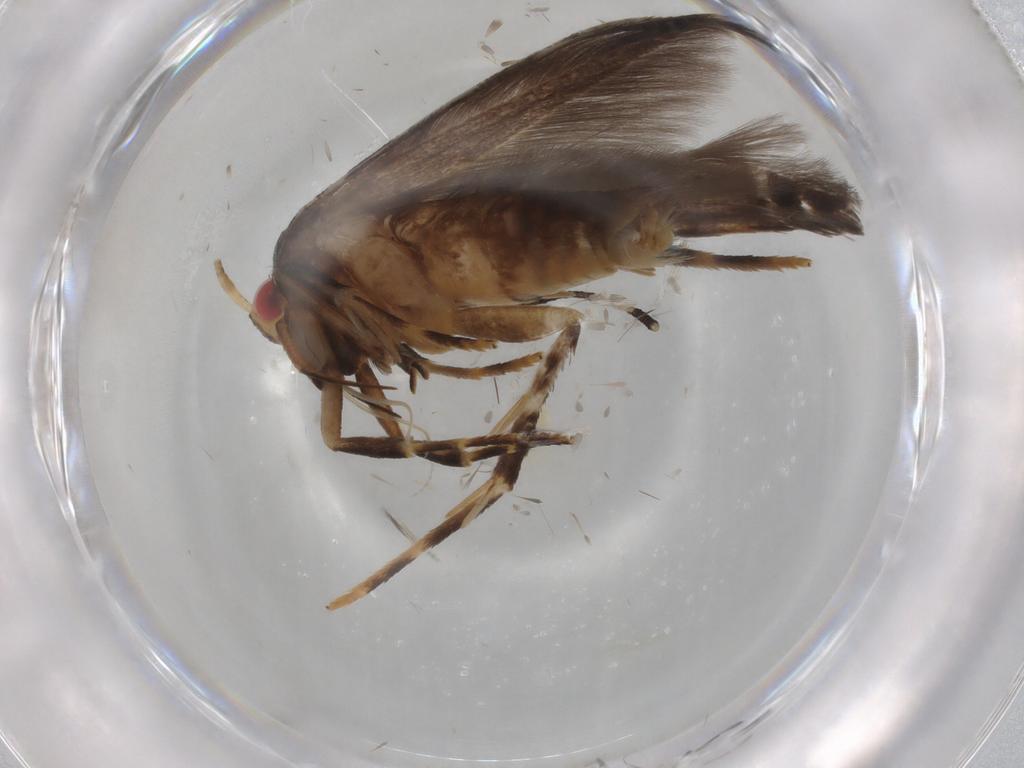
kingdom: Animalia
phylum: Arthropoda
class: Insecta
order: Lepidoptera
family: Cosmopterigidae
